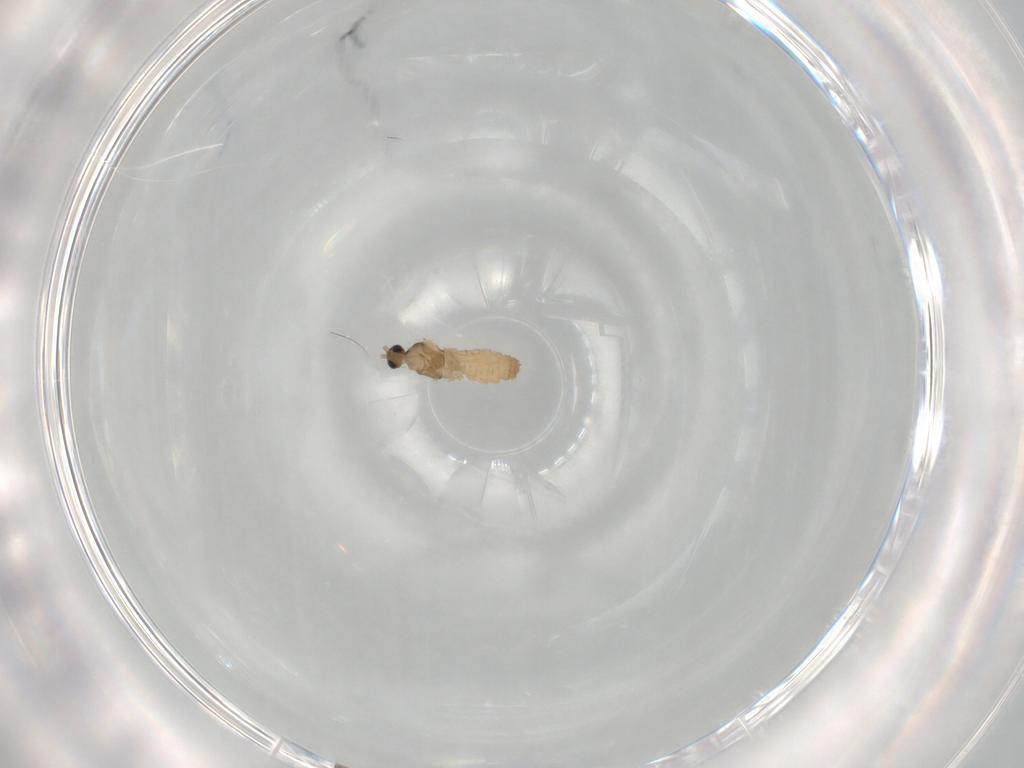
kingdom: Animalia
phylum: Arthropoda
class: Insecta
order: Diptera
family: Cecidomyiidae
